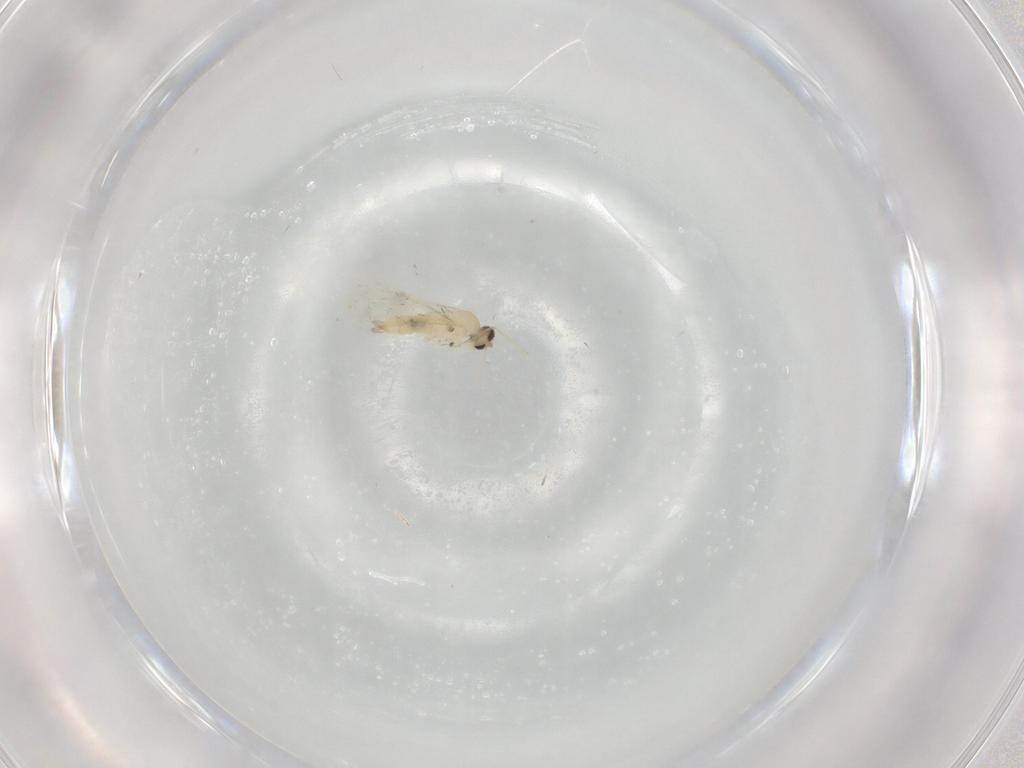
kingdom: Animalia
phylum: Arthropoda
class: Insecta
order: Diptera
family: Cecidomyiidae
